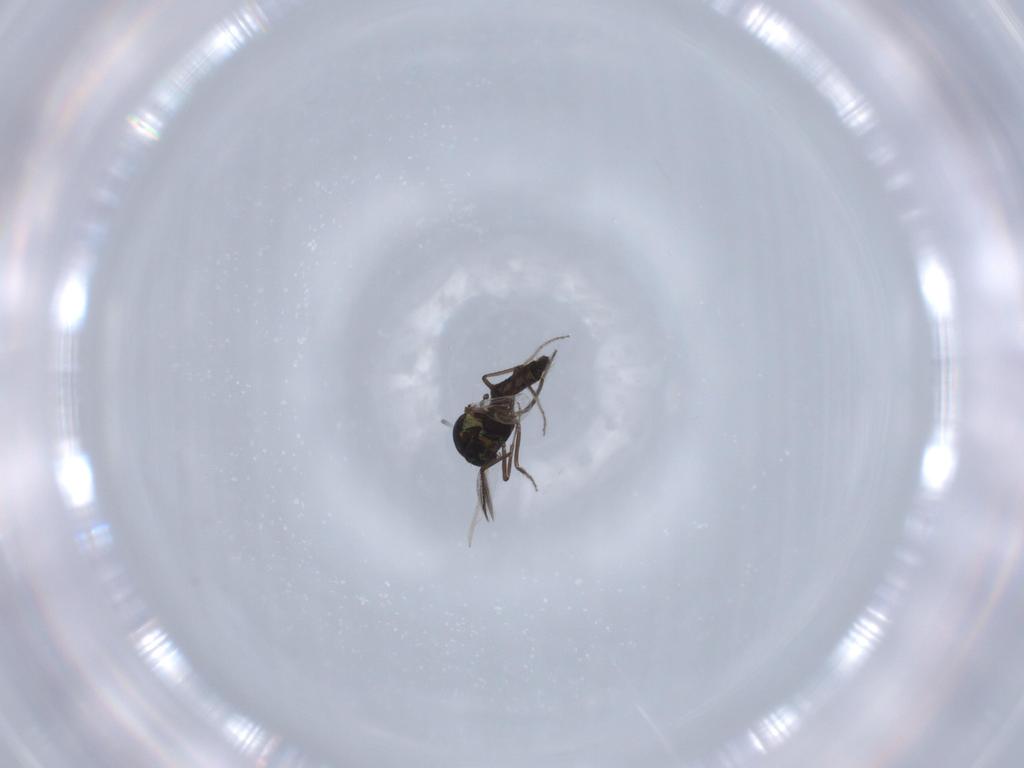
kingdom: Animalia
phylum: Arthropoda
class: Insecta
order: Diptera
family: Ceratopogonidae
